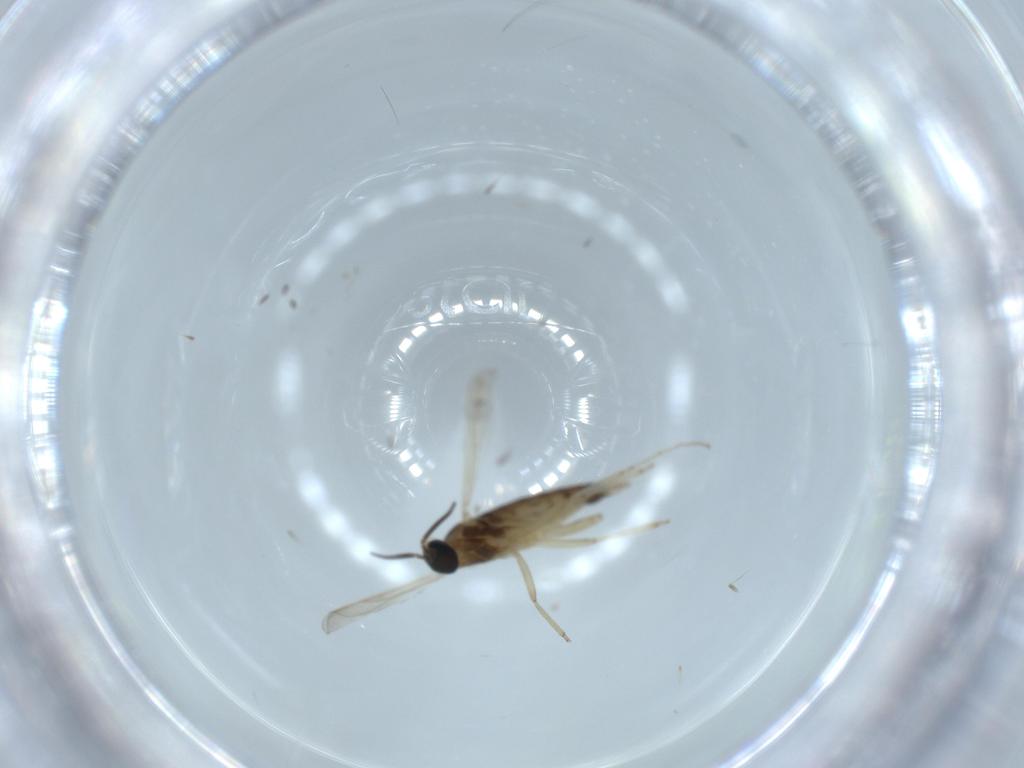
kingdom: Animalia
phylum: Arthropoda
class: Insecta
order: Diptera
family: Cecidomyiidae
